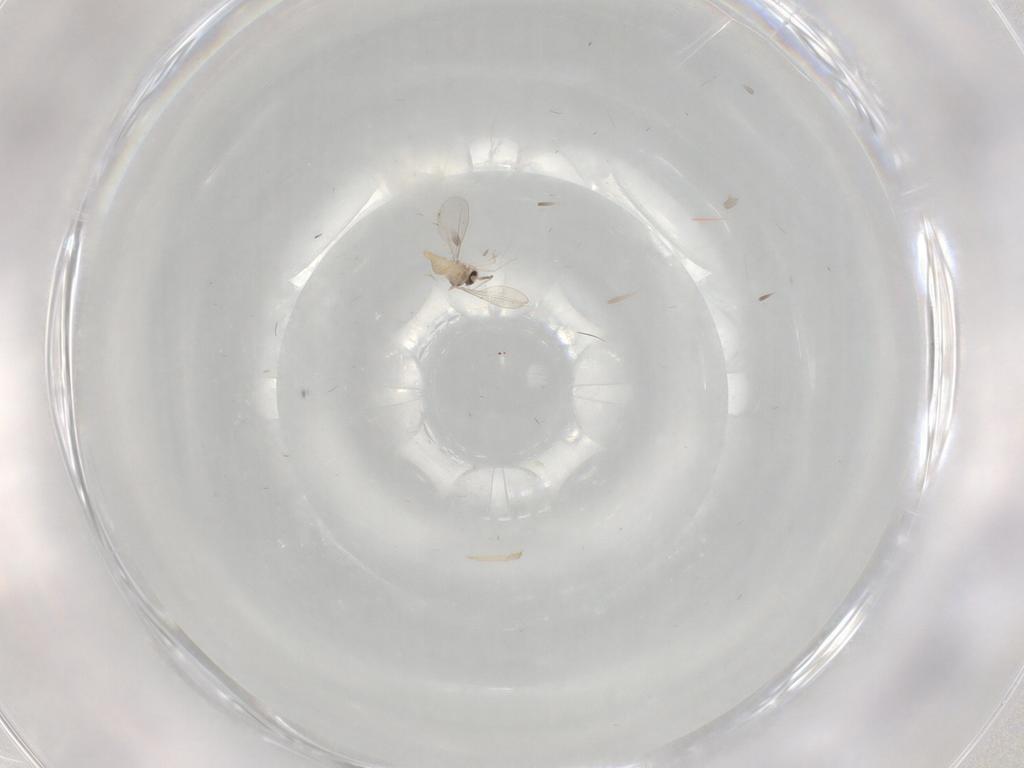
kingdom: Animalia
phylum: Arthropoda
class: Insecta
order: Diptera
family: Cecidomyiidae
